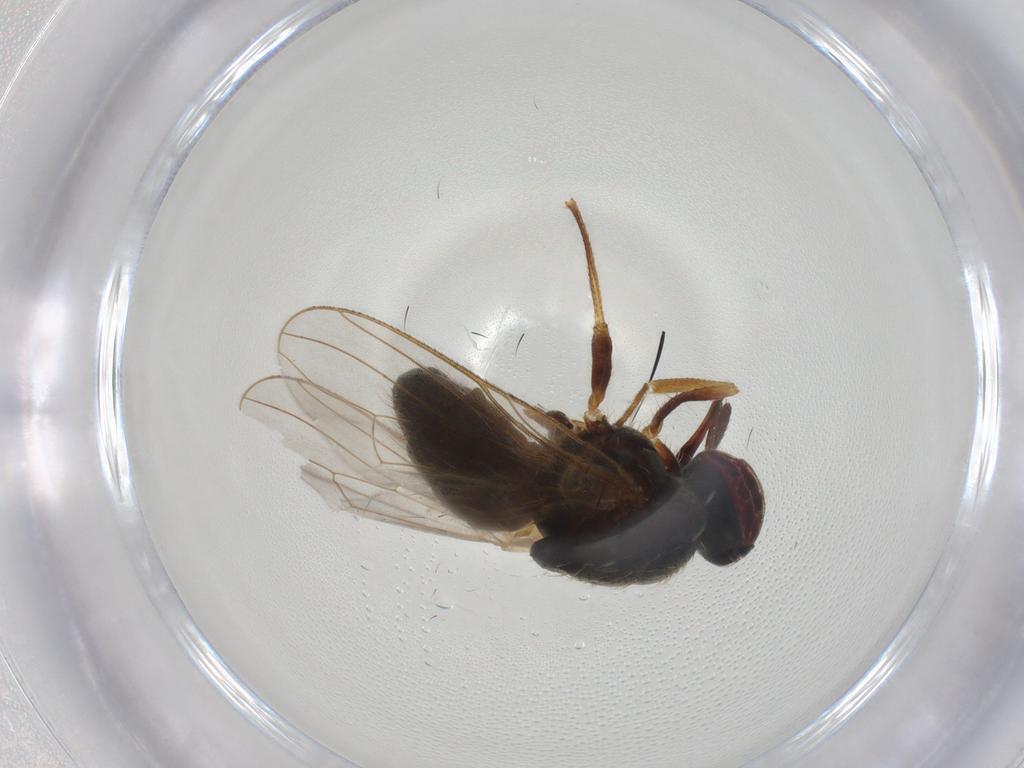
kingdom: Animalia
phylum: Arthropoda
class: Insecta
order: Diptera
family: Muscidae
